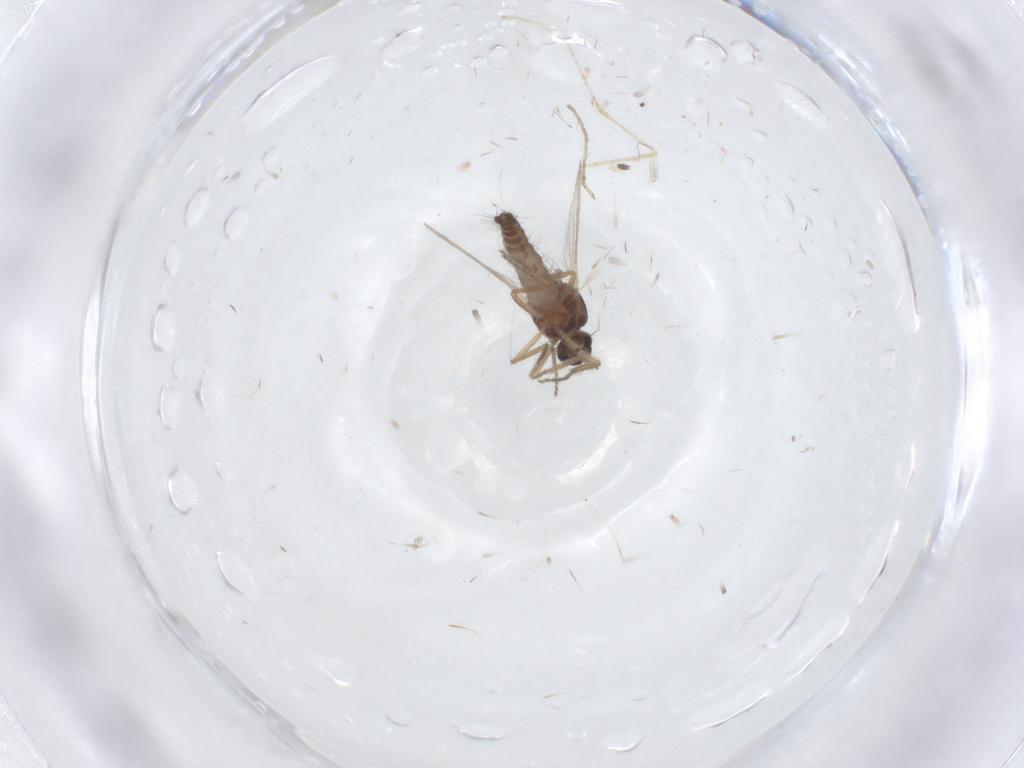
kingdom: Animalia
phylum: Arthropoda
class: Insecta
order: Diptera
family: Ceratopogonidae
